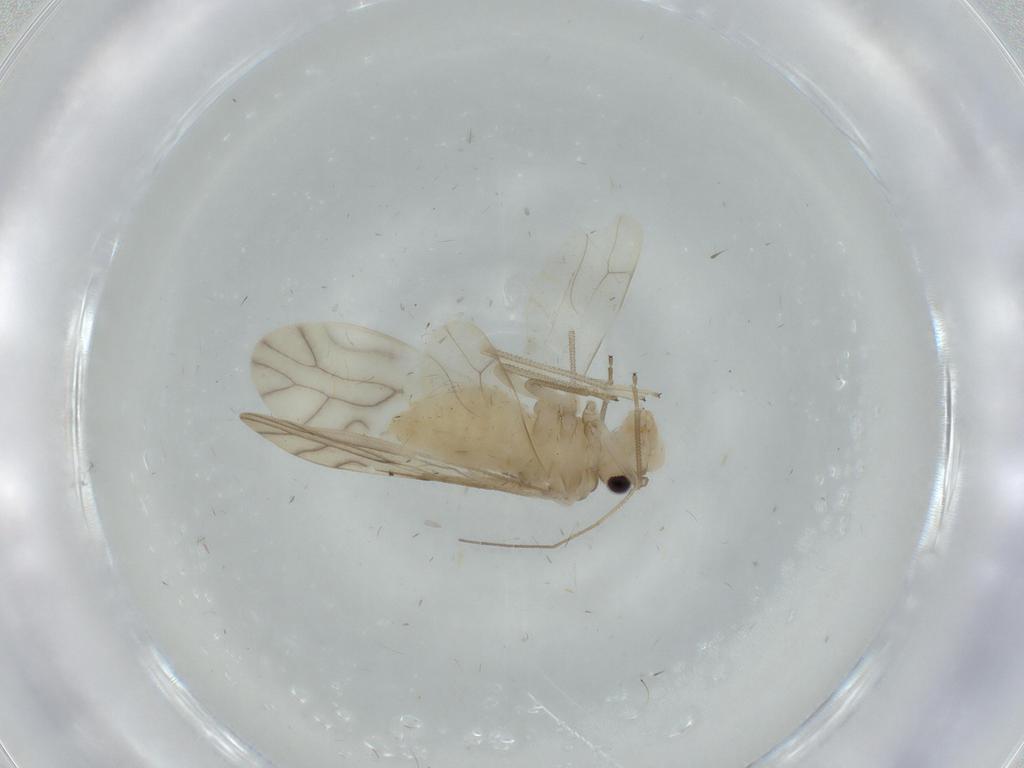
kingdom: Animalia
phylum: Arthropoda
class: Insecta
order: Psocodea
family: Caeciliusidae
